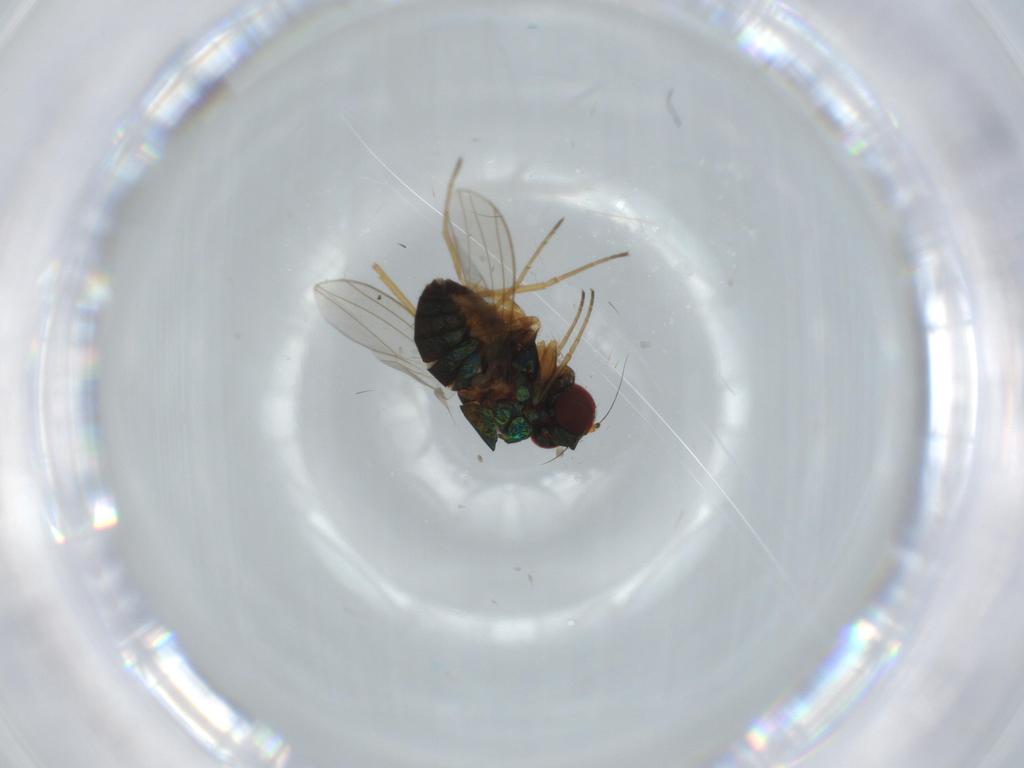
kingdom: Animalia
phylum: Arthropoda
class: Insecta
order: Diptera
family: Dolichopodidae
